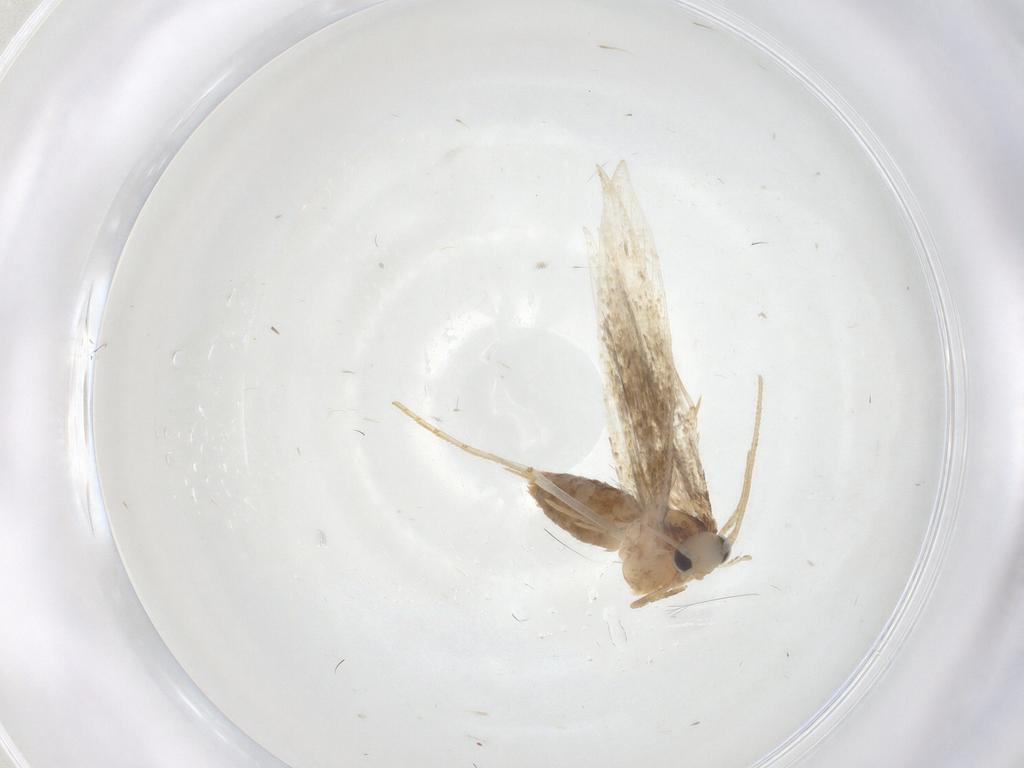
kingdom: Animalia
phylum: Arthropoda
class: Insecta
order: Lepidoptera
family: Tineidae
